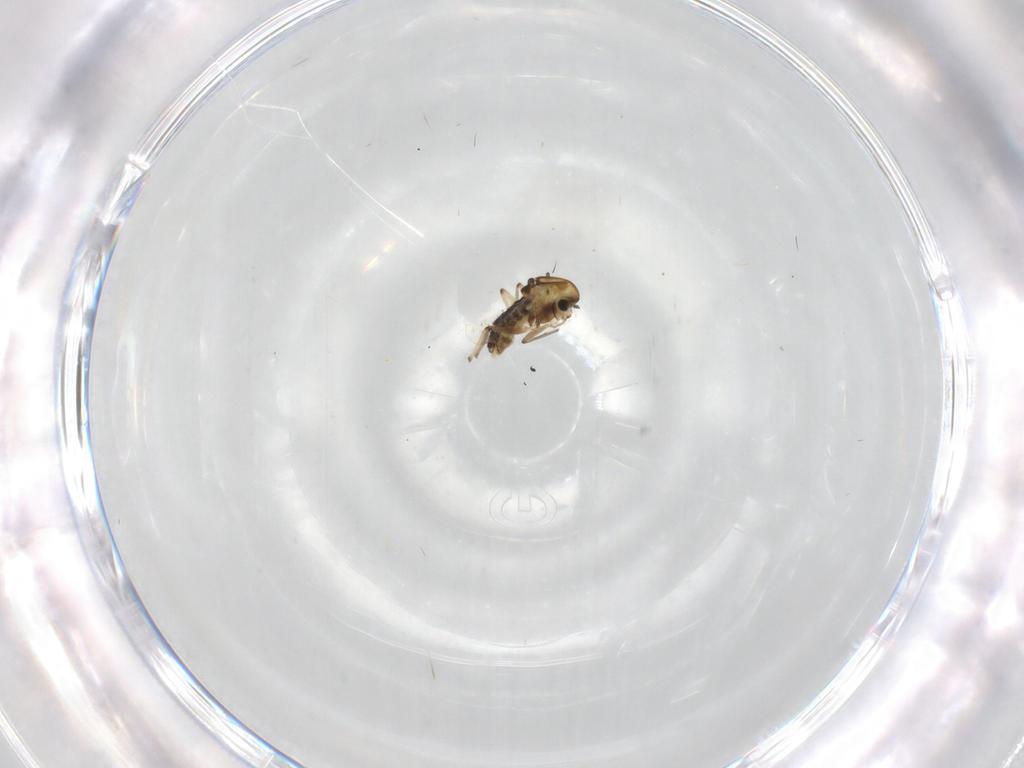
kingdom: Animalia
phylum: Arthropoda
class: Insecta
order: Diptera
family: Chironomidae
